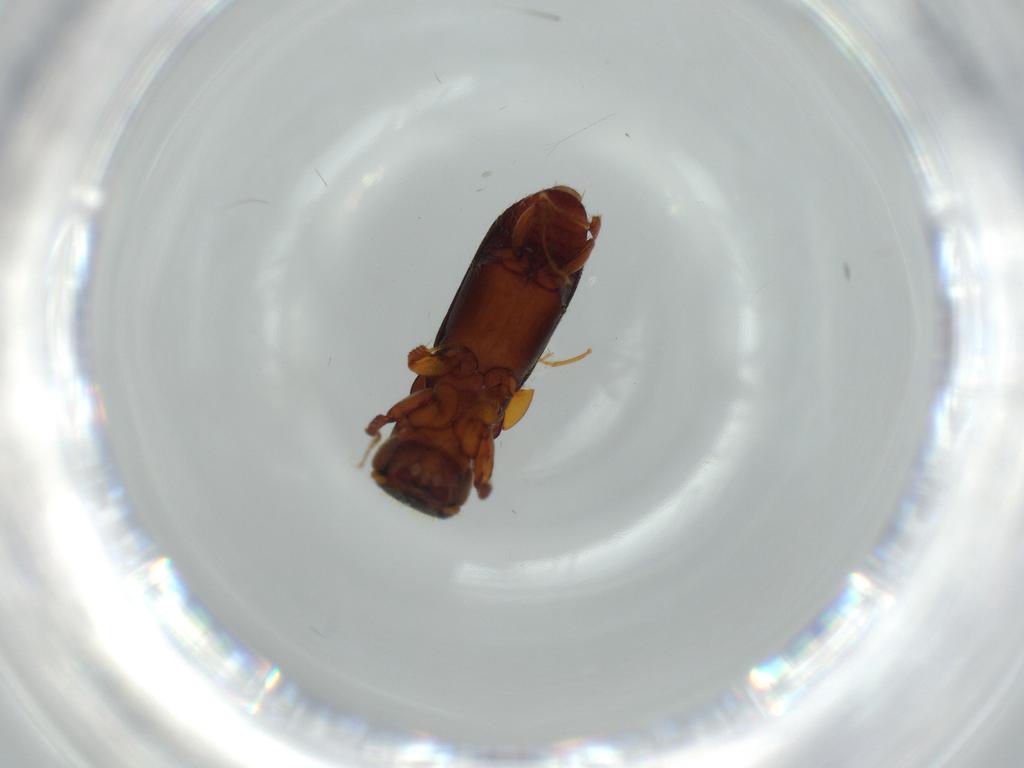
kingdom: Animalia
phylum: Arthropoda
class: Insecta
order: Coleoptera
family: Curculionidae
